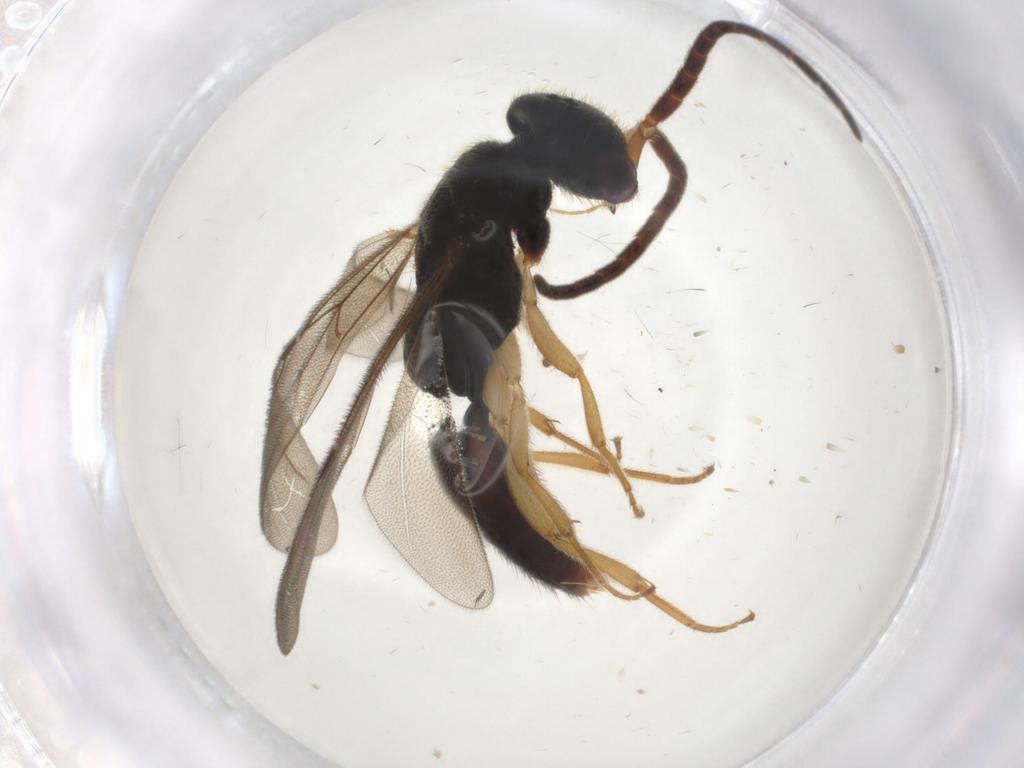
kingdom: Animalia
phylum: Arthropoda
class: Insecta
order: Hymenoptera
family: Bethylidae
